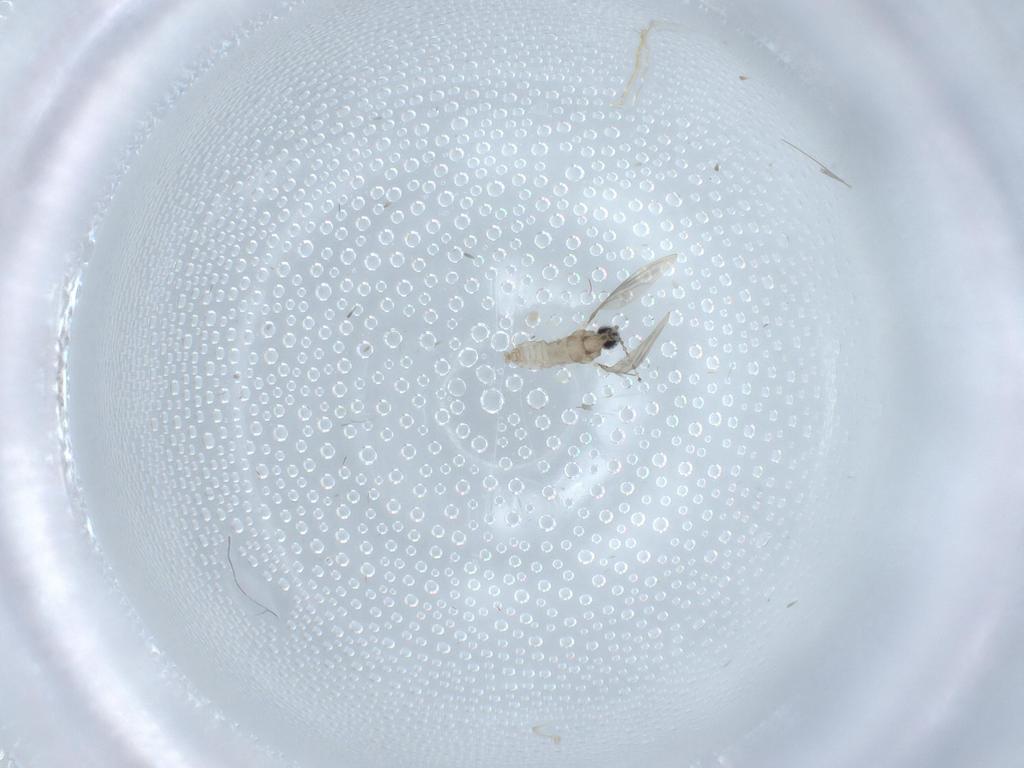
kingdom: Animalia
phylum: Arthropoda
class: Insecta
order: Diptera
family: Cecidomyiidae
